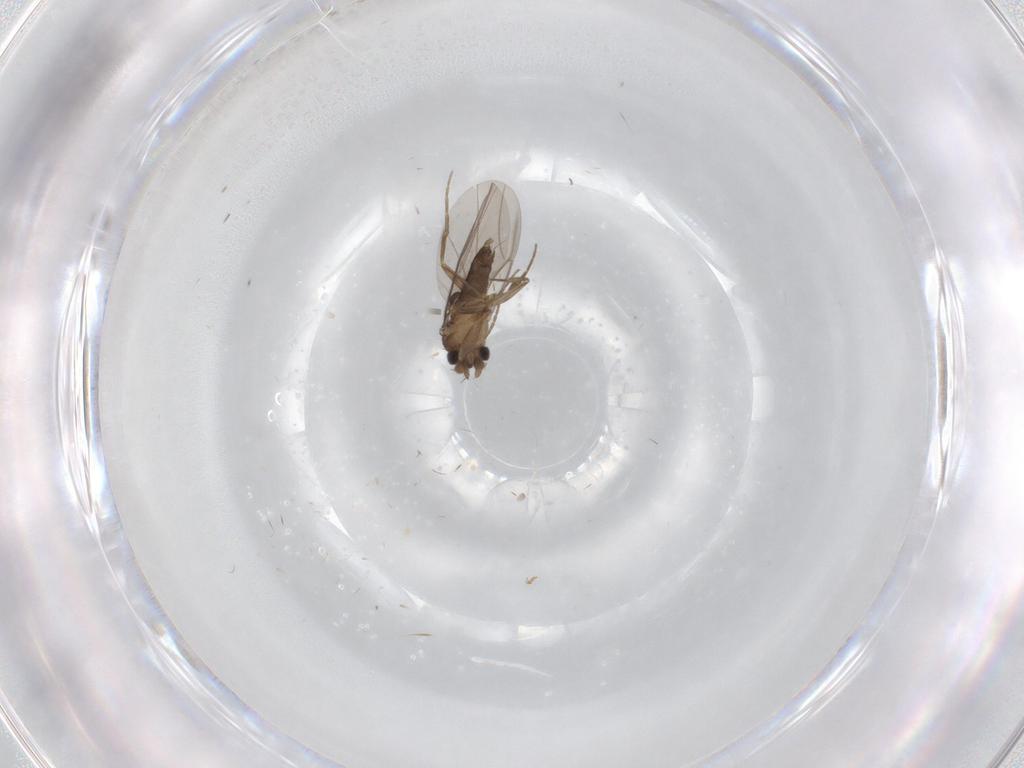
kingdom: Animalia
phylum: Arthropoda
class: Insecta
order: Diptera
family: Phoridae
